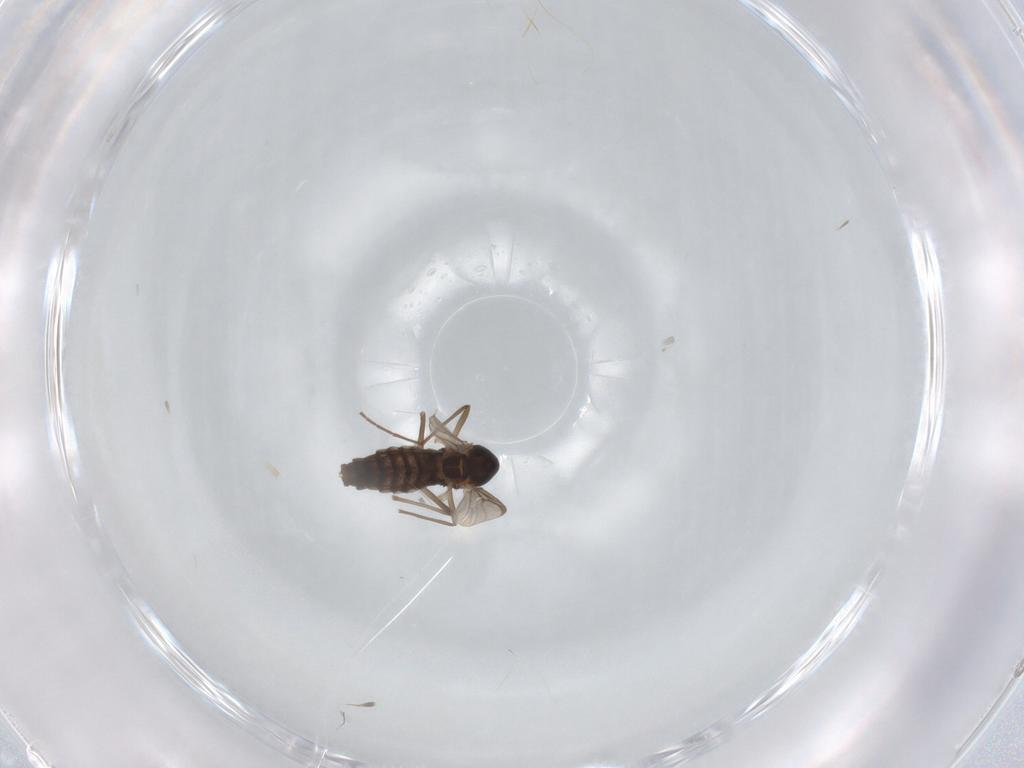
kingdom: Animalia
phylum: Arthropoda
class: Insecta
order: Diptera
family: Chironomidae
